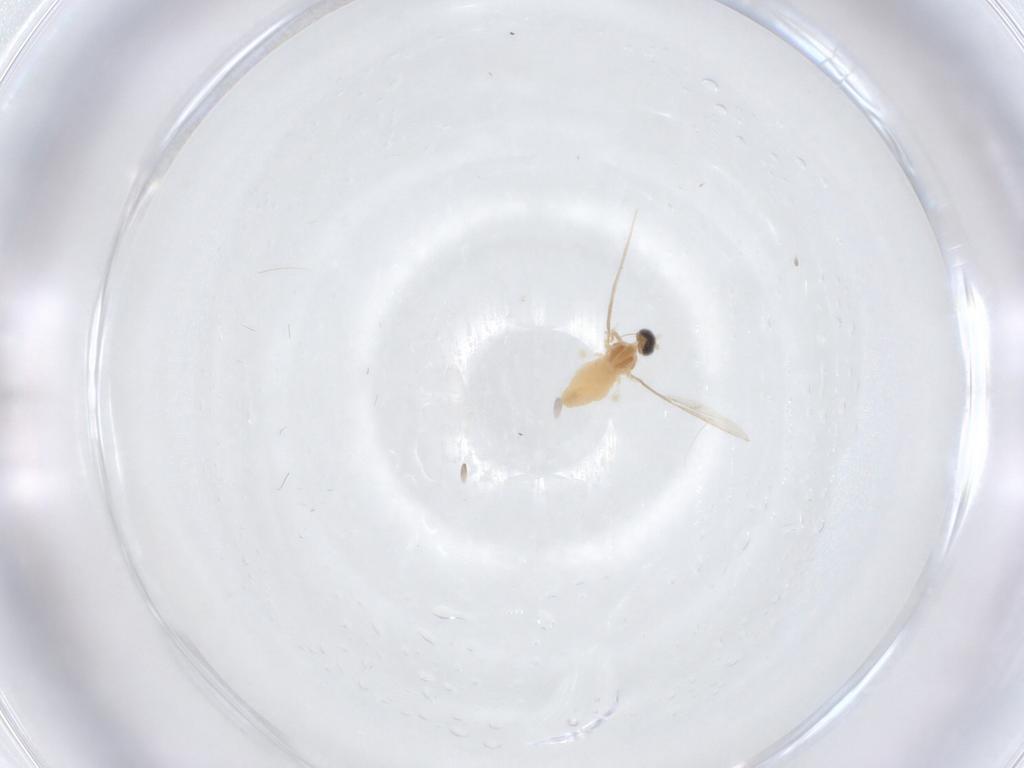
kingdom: Animalia
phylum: Arthropoda
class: Insecta
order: Diptera
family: Cecidomyiidae
